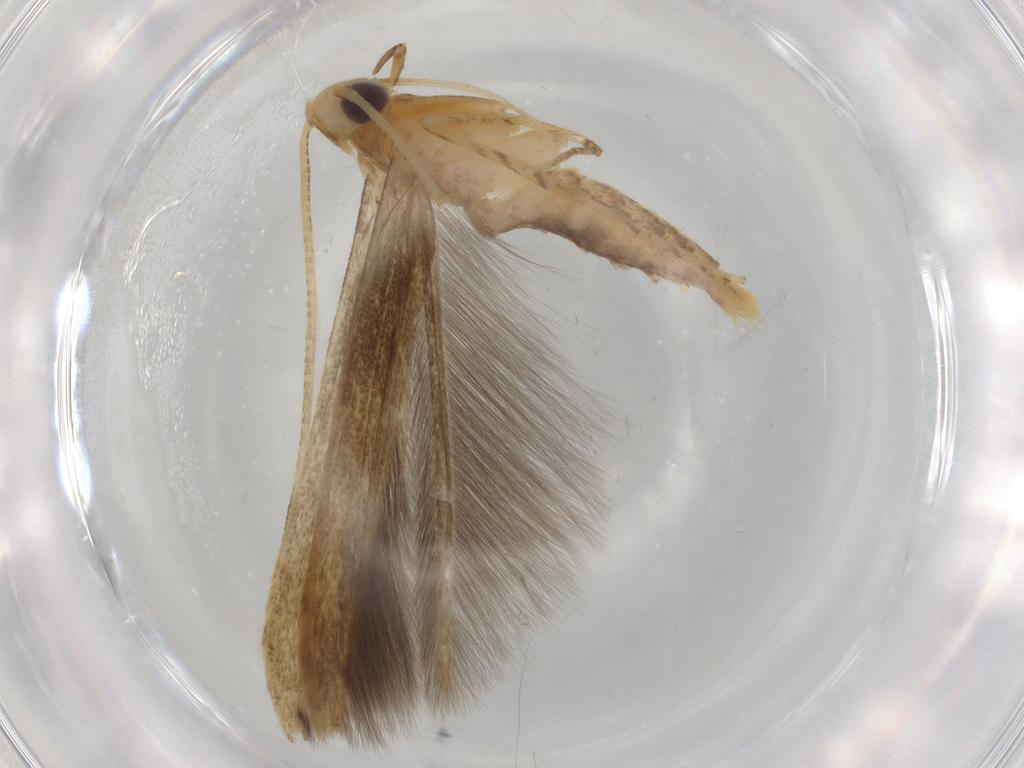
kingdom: Animalia
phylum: Arthropoda
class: Insecta
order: Lepidoptera
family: Batrachedridae
